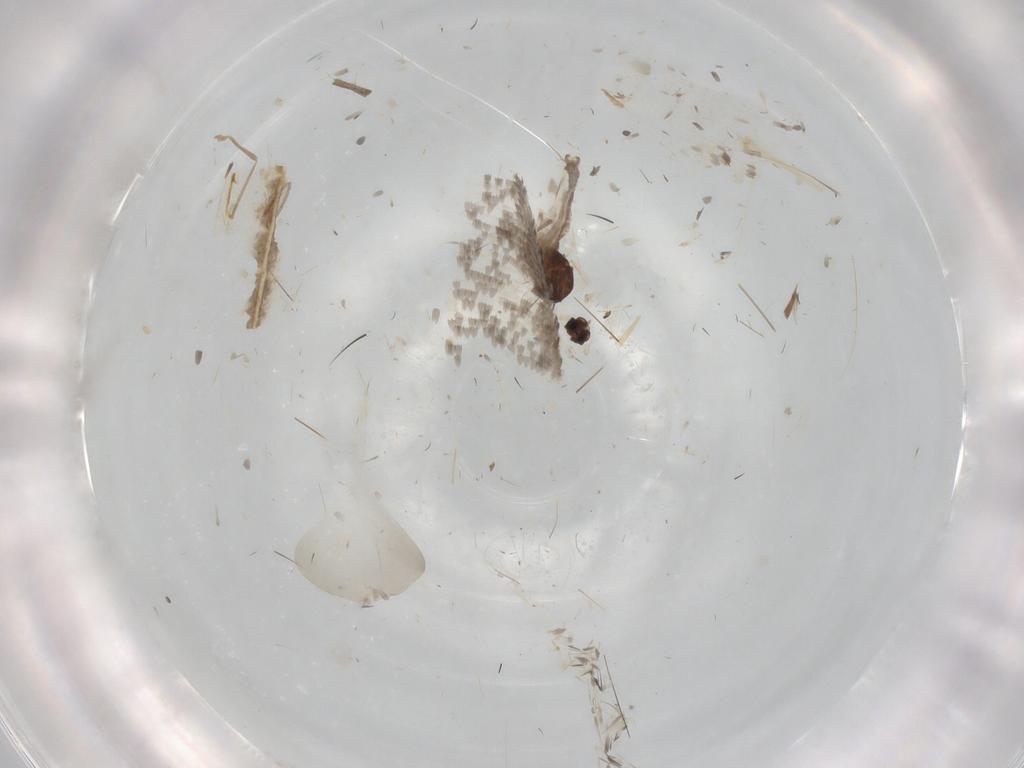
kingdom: Animalia
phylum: Arthropoda
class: Insecta
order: Diptera
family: Sciaridae
